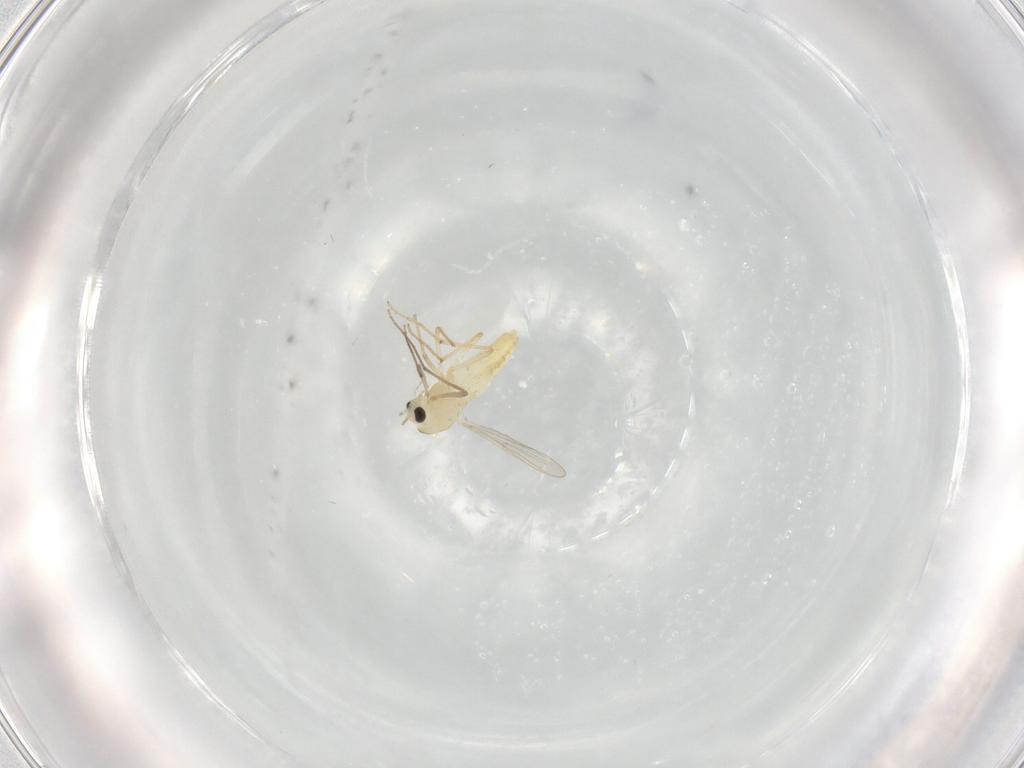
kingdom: Animalia
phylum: Arthropoda
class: Insecta
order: Diptera
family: Chironomidae
